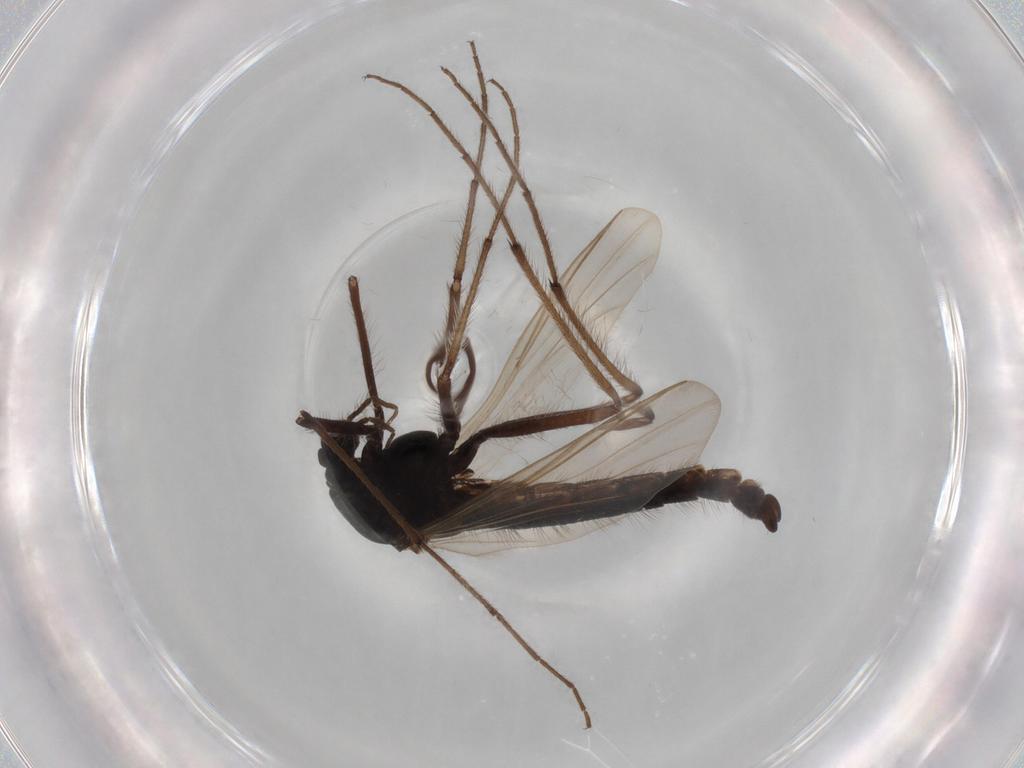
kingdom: Animalia
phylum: Arthropoda
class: Insecta
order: Diptera
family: Drosophilidae
